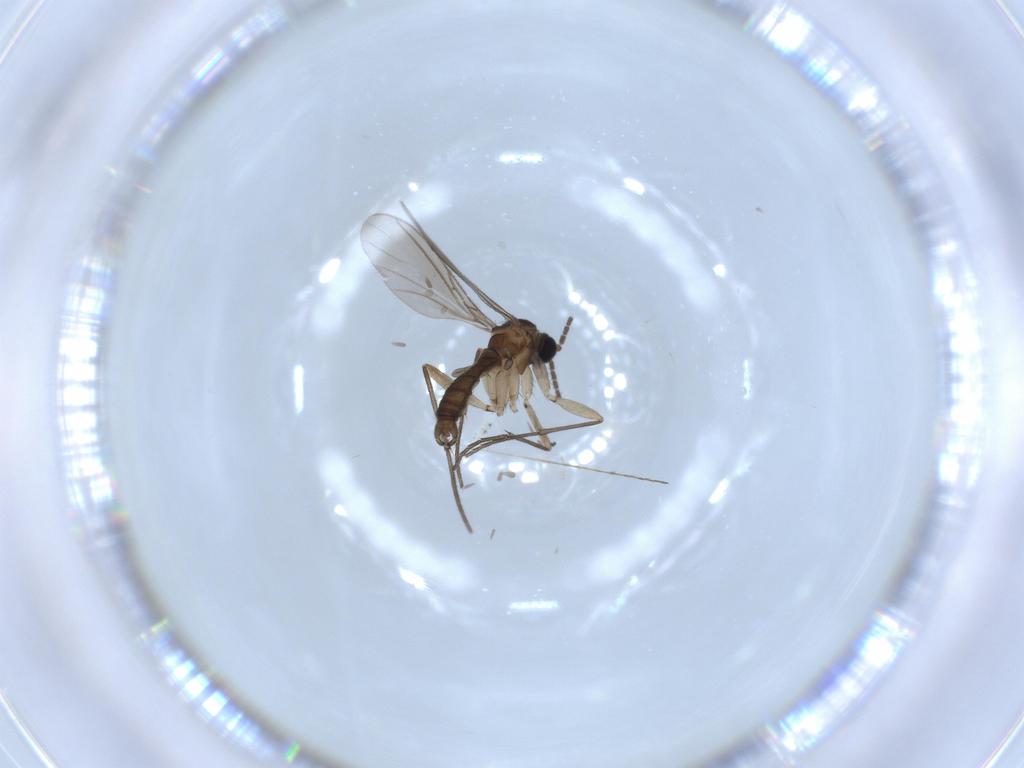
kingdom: Animalia
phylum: Arthropoda
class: Insecta
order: Diptera
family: Sciaridae
